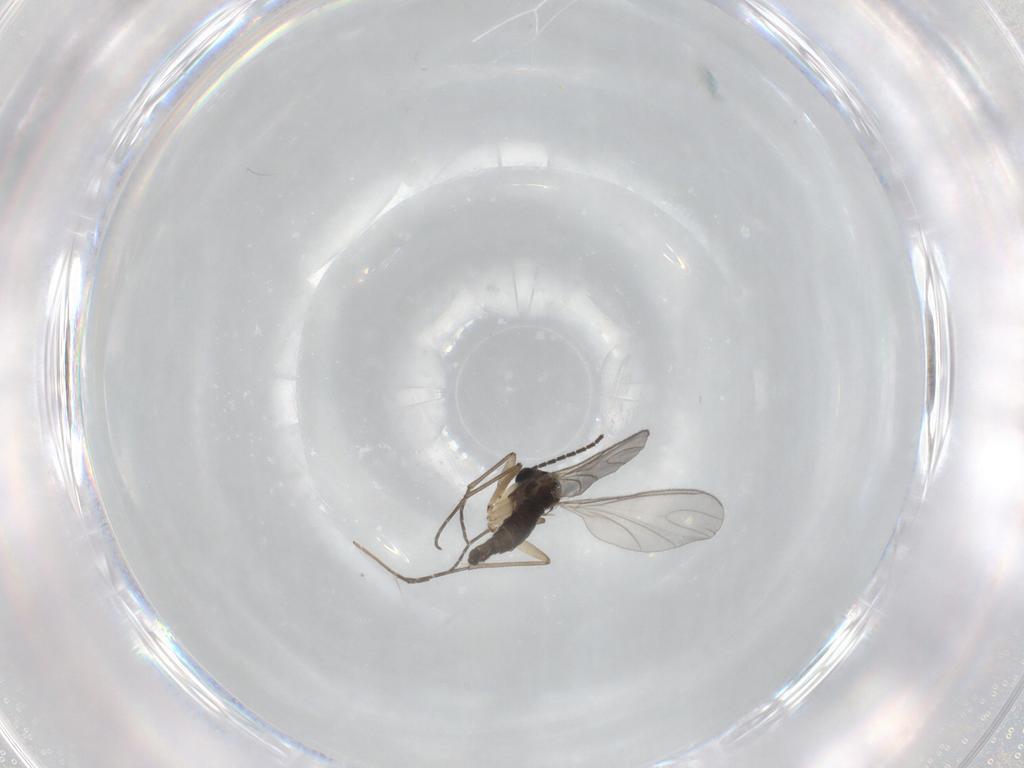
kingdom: Animalia
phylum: Arthropoda
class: Insecta
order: Diptera
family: Sciaridae
